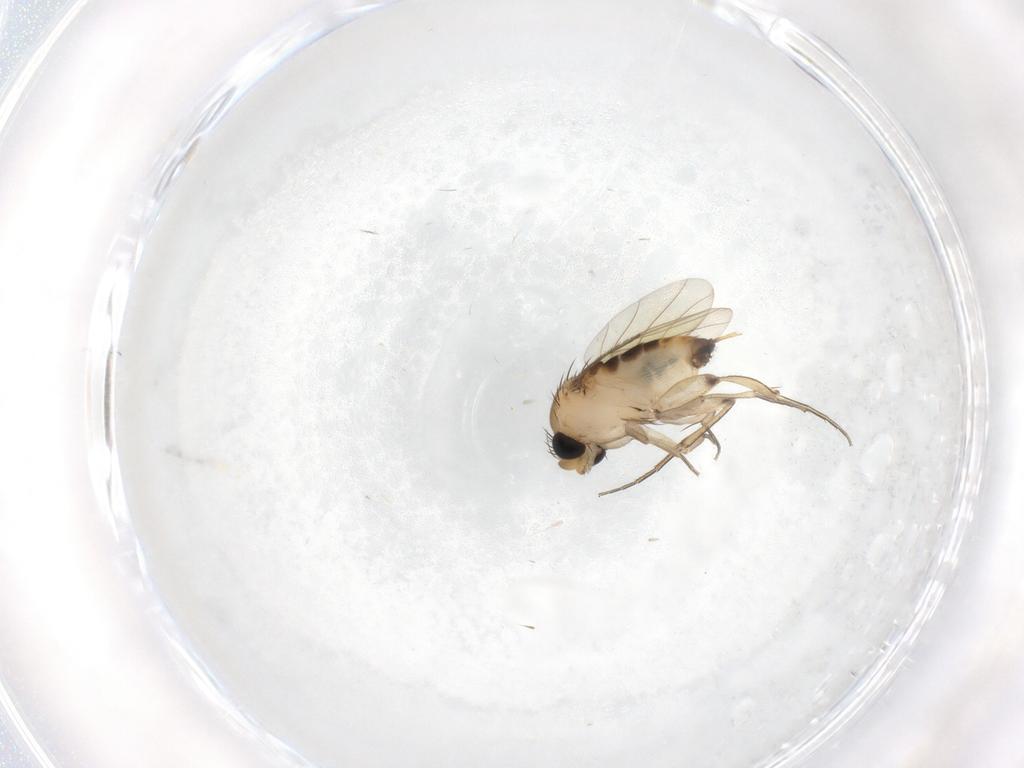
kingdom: Animalia
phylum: Arthropoda
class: Insecta
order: Diptera
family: Phoridae
